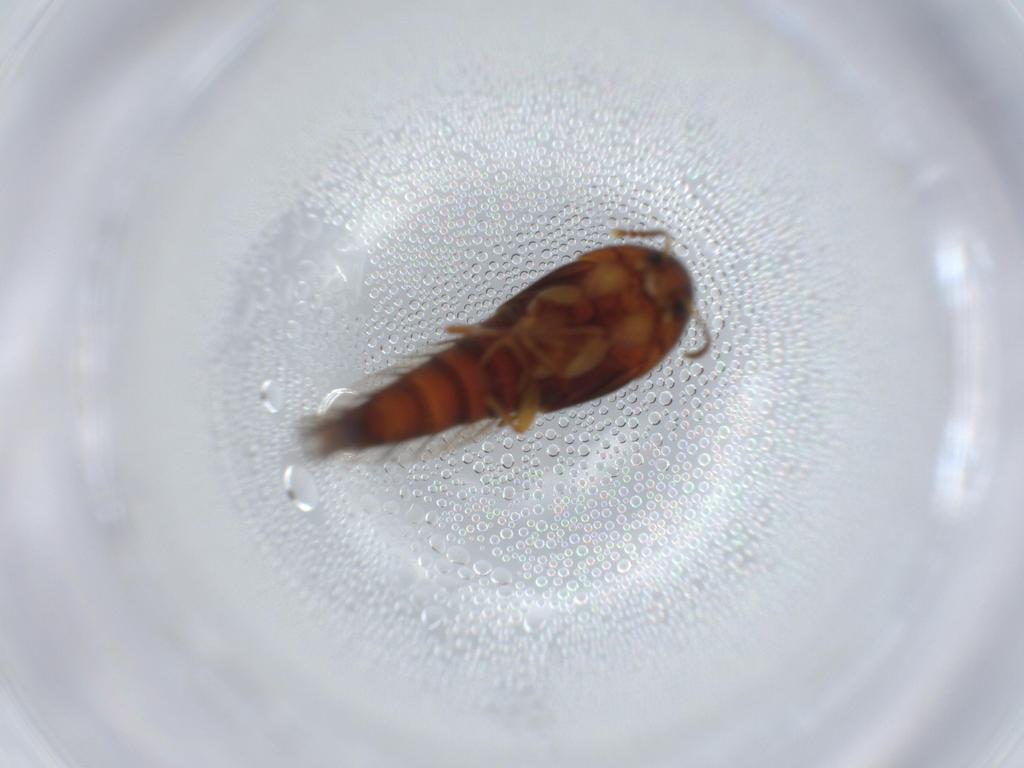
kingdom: Animalia
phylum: Arthropoda
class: Insecta
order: Coleoptera
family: Staphylinidae
